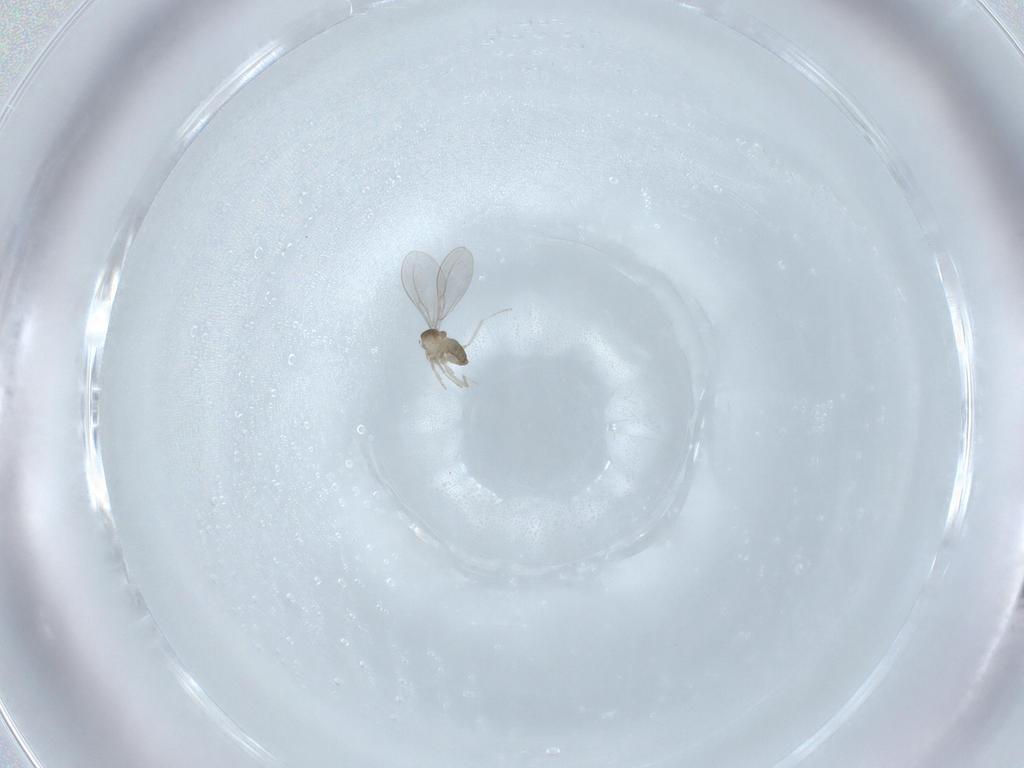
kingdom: Animalia
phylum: Arthropoda
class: Insecta
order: Diptera
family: Cecidomyiidae
